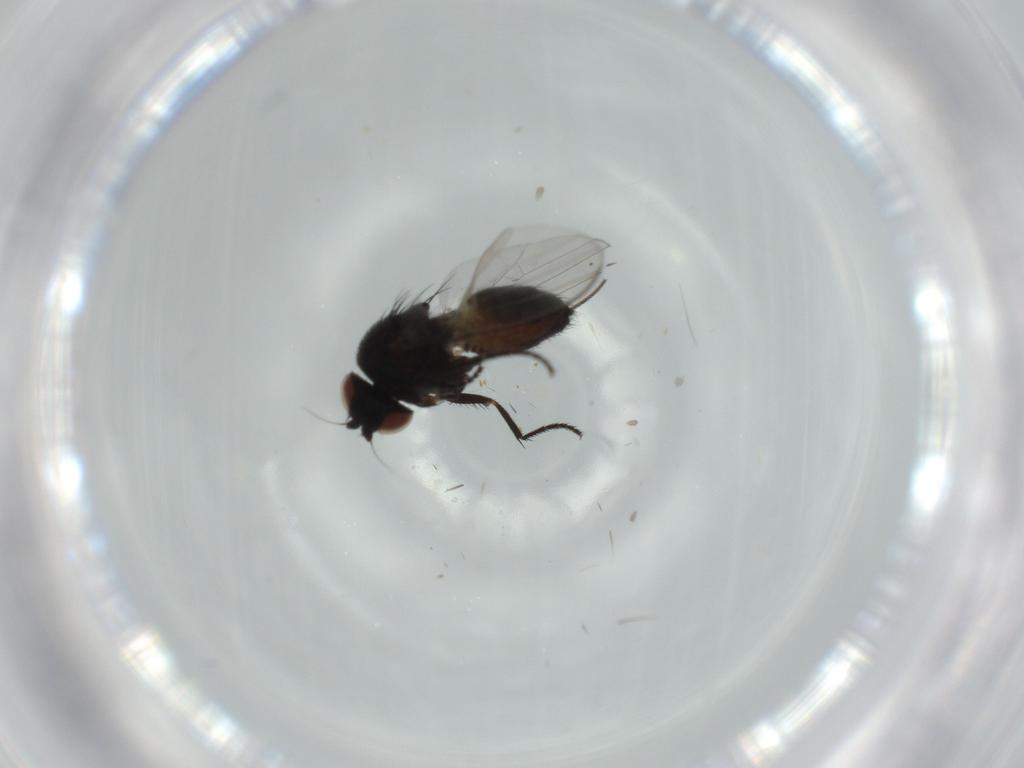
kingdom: Animalia
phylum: Arthropoda
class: Insecta
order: Diptera
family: Milichiidae
